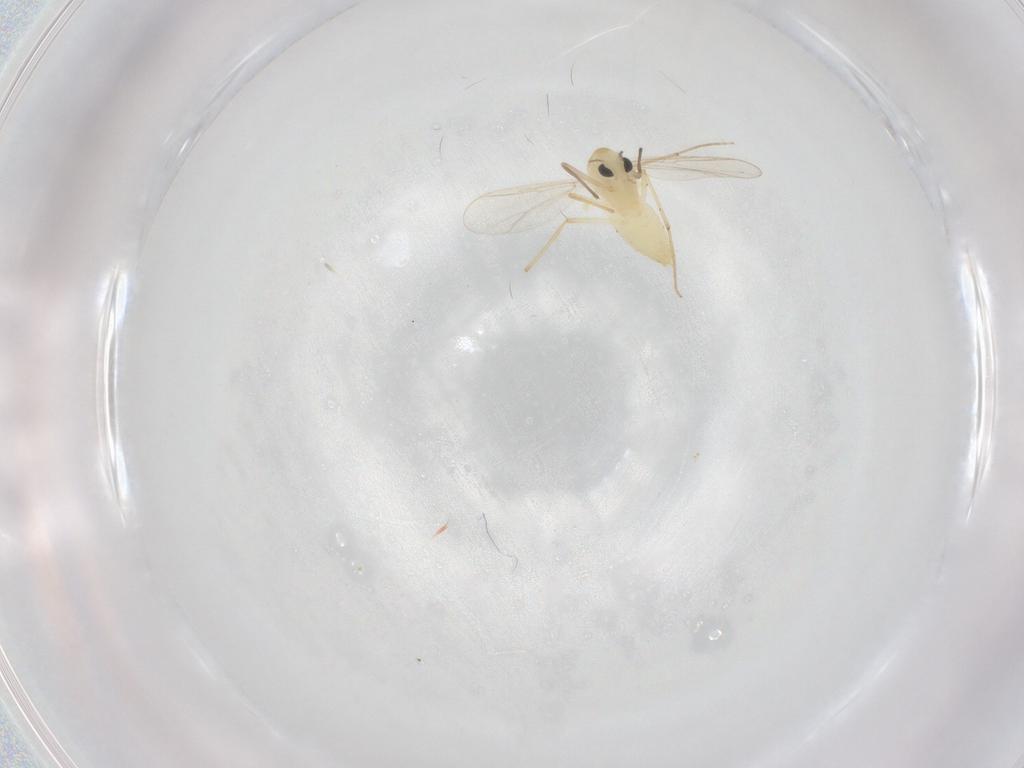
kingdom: Animalia
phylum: Arthropoda
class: Insecta
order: Diptera
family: Chironomidae
